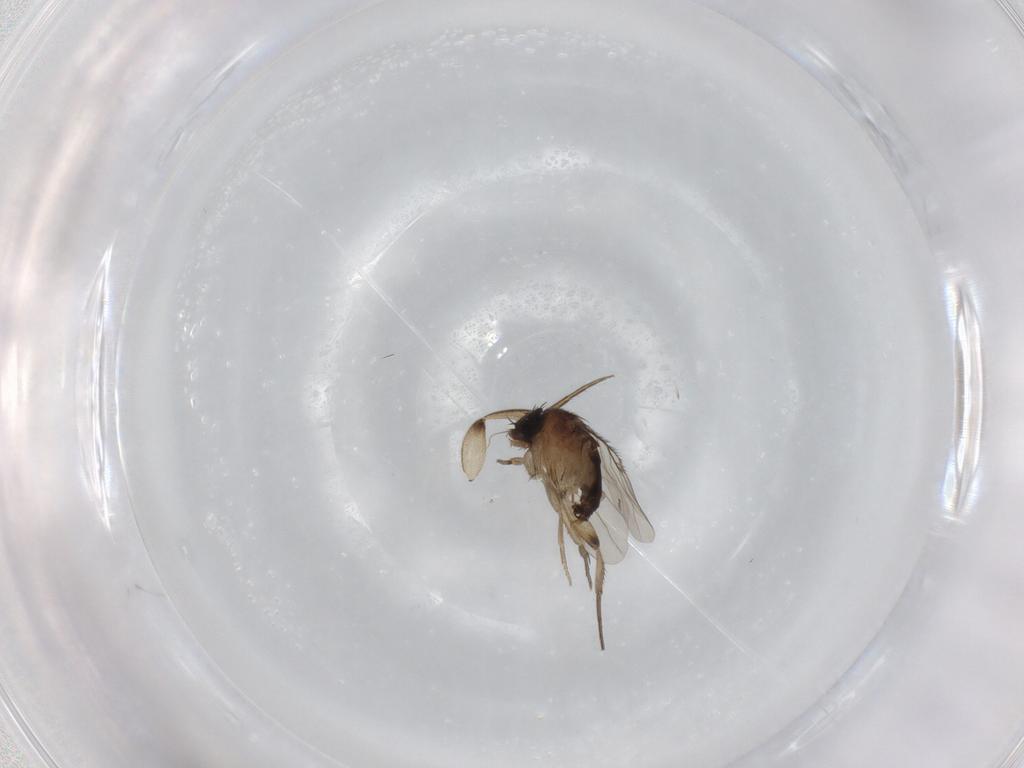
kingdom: Animalia
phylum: Arthropoda
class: Insecta
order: Diptera
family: Phoridae
